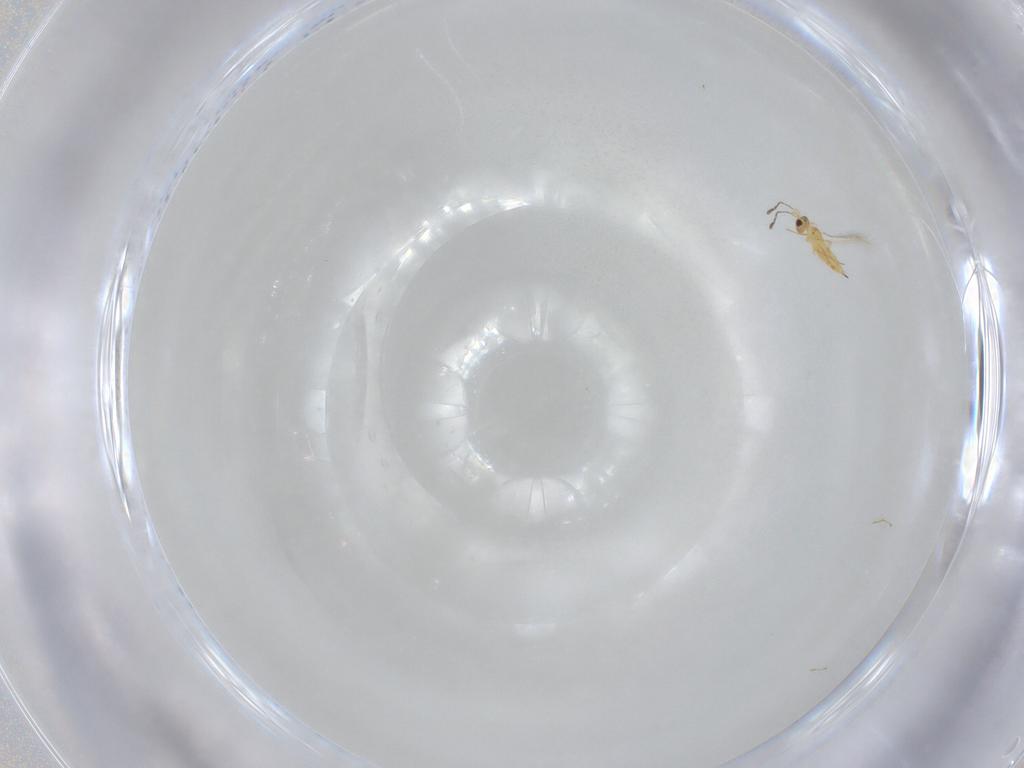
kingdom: Animalia
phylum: Arthropoda
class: Insecta
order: Hymenoptera
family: Mymaridae
